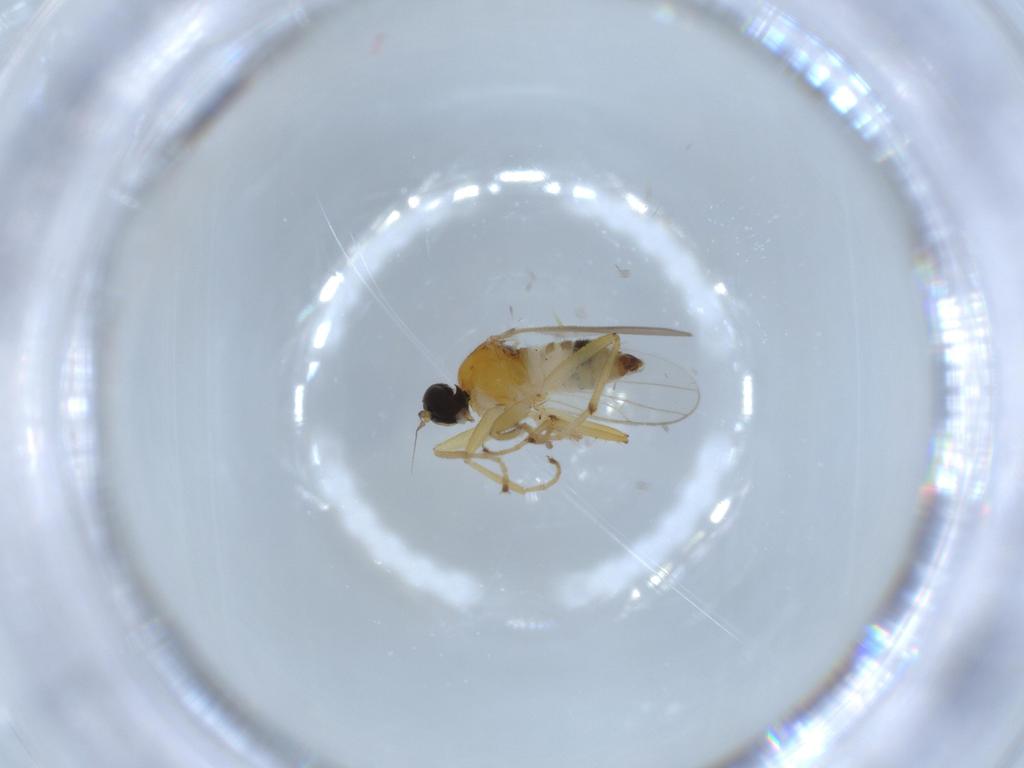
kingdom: Animalia
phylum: Arthropoda
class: Insecta
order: Diptera
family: Hybotidae
